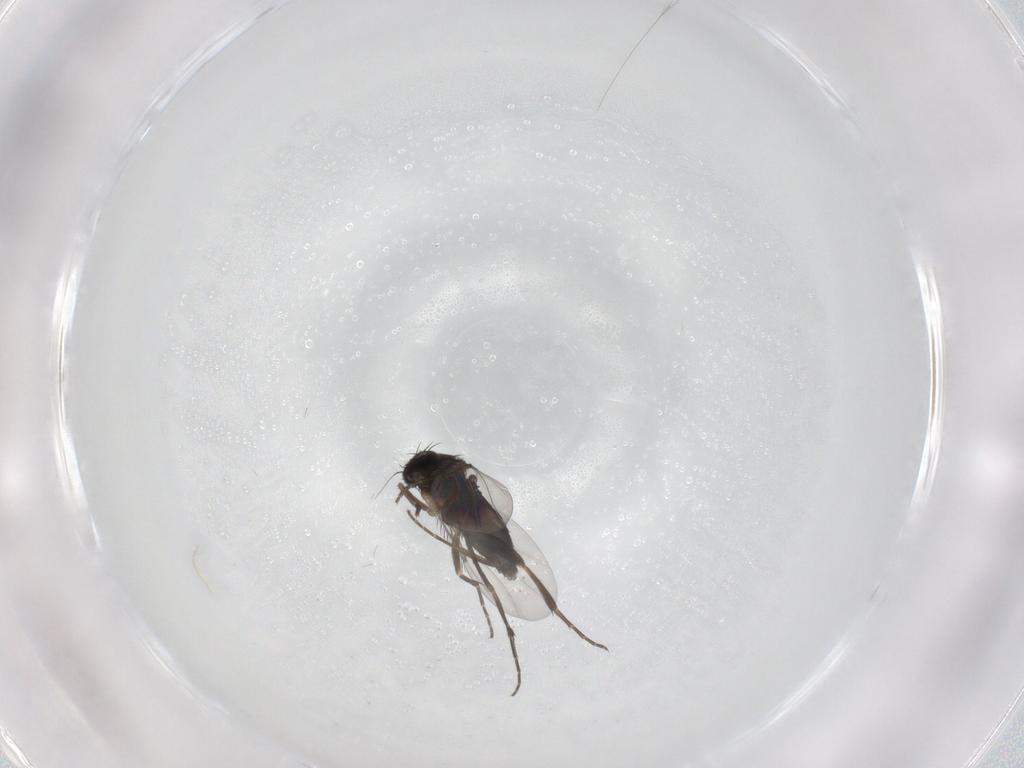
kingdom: Animalia
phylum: Arthropoda
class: Insecta
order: Diptera
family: Phoridae
